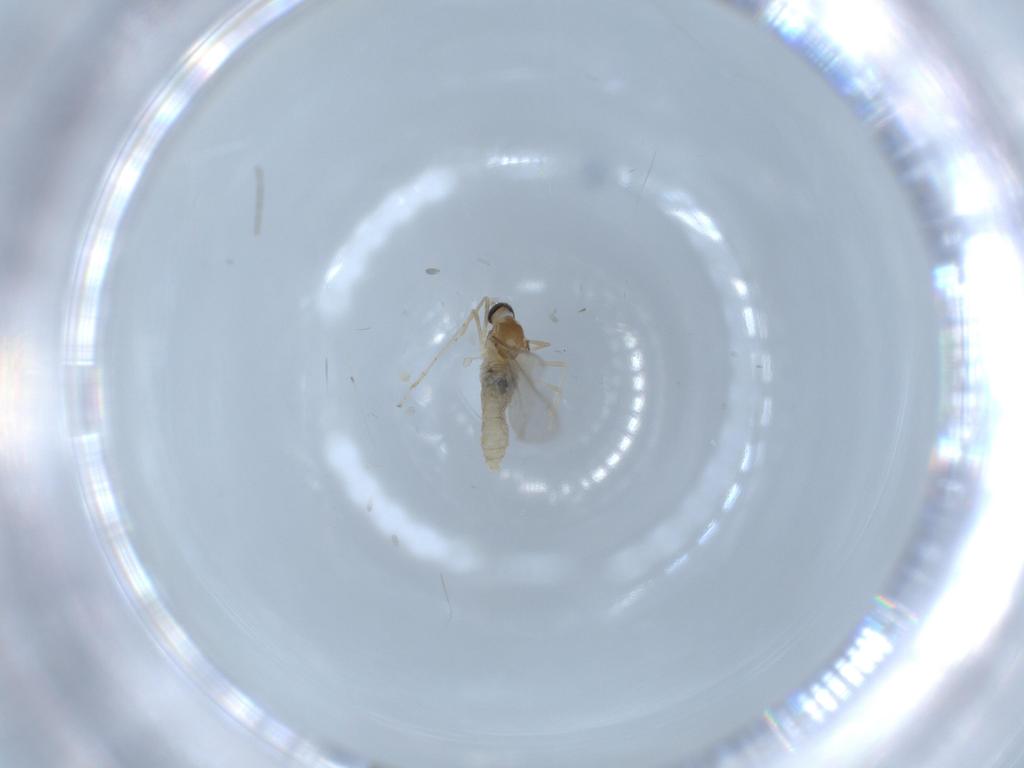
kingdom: Animalia
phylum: Arthropoda
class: Insecta
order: Diptera
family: Cecidomyiidae
